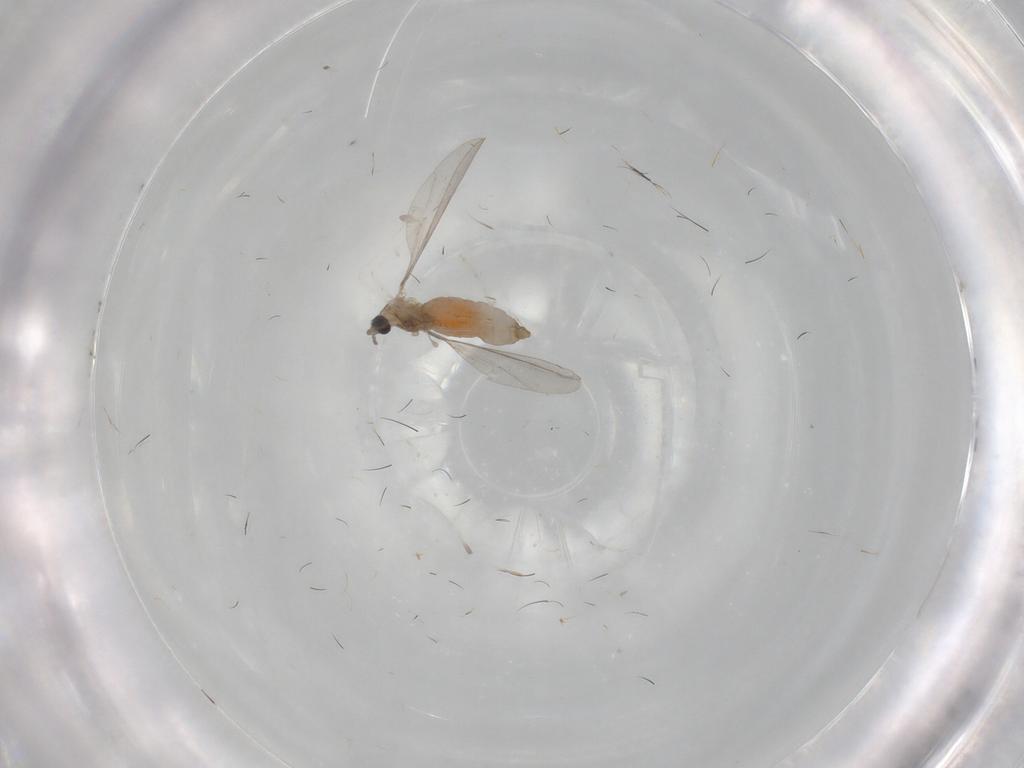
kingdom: Animalia
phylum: Arthropoda
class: Insecta
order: Diptera
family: Cecidomyiidae
